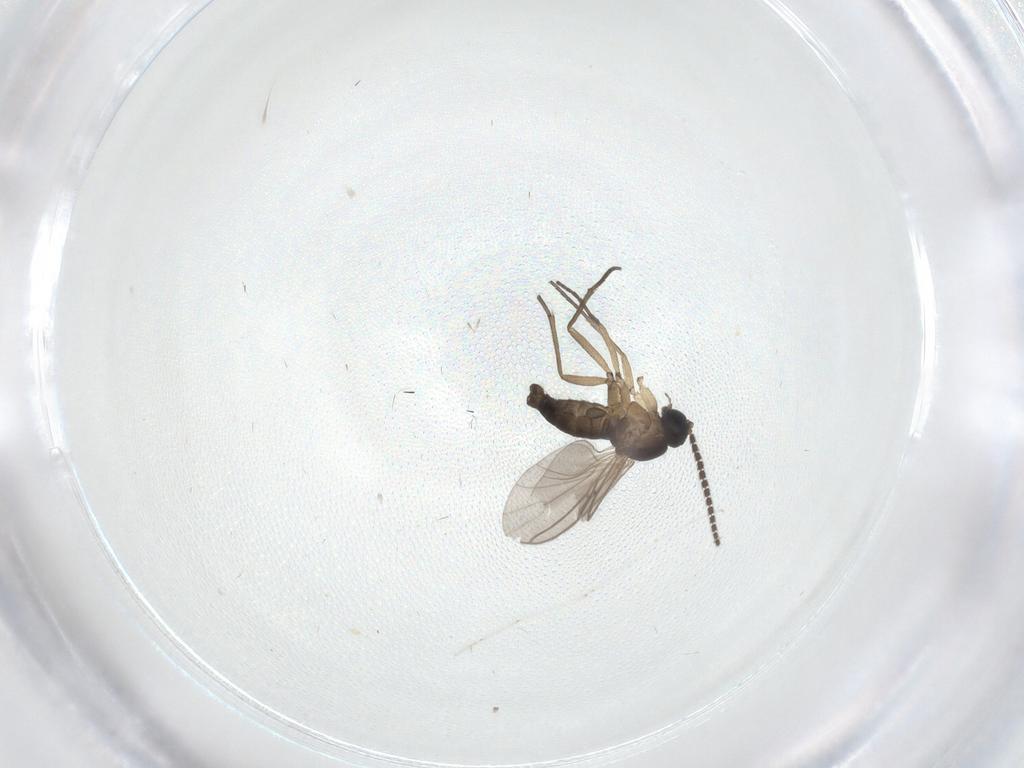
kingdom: Animalia
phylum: Arthropoda
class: Insecta
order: Diptera
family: Sciaridae
